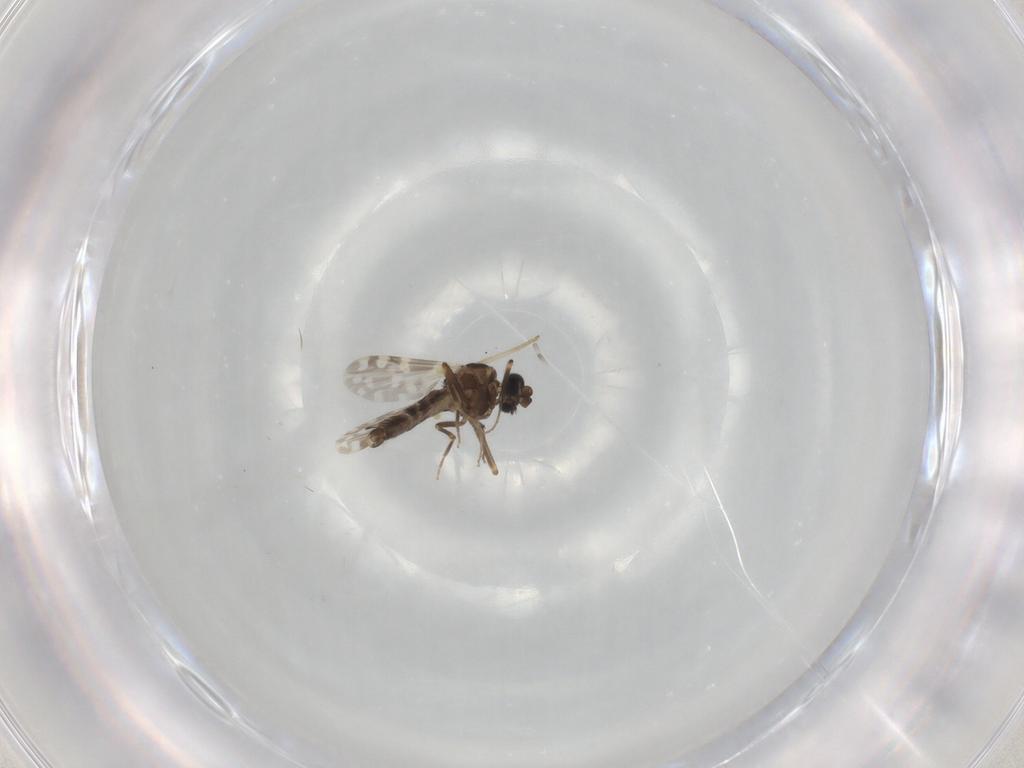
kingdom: Animalia
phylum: Arthropoda
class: Insecta
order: Diptera
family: Ceratopogonidae
